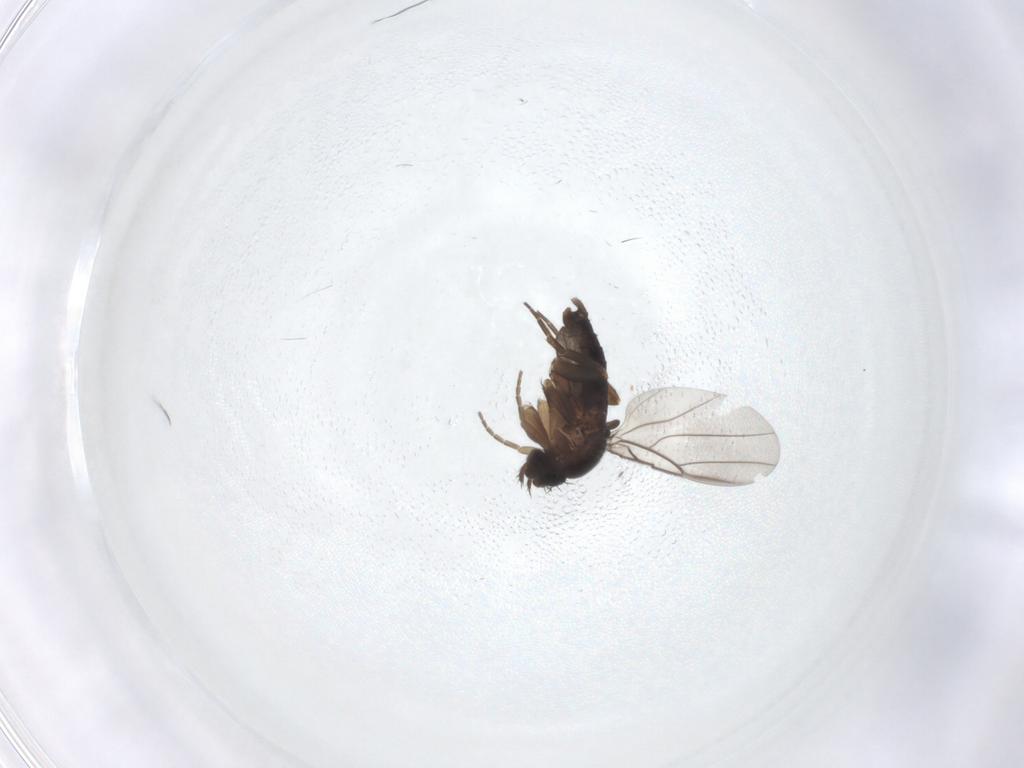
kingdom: Animalia
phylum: Arthropoda
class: Insecta
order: Diptera
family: Phoridae
